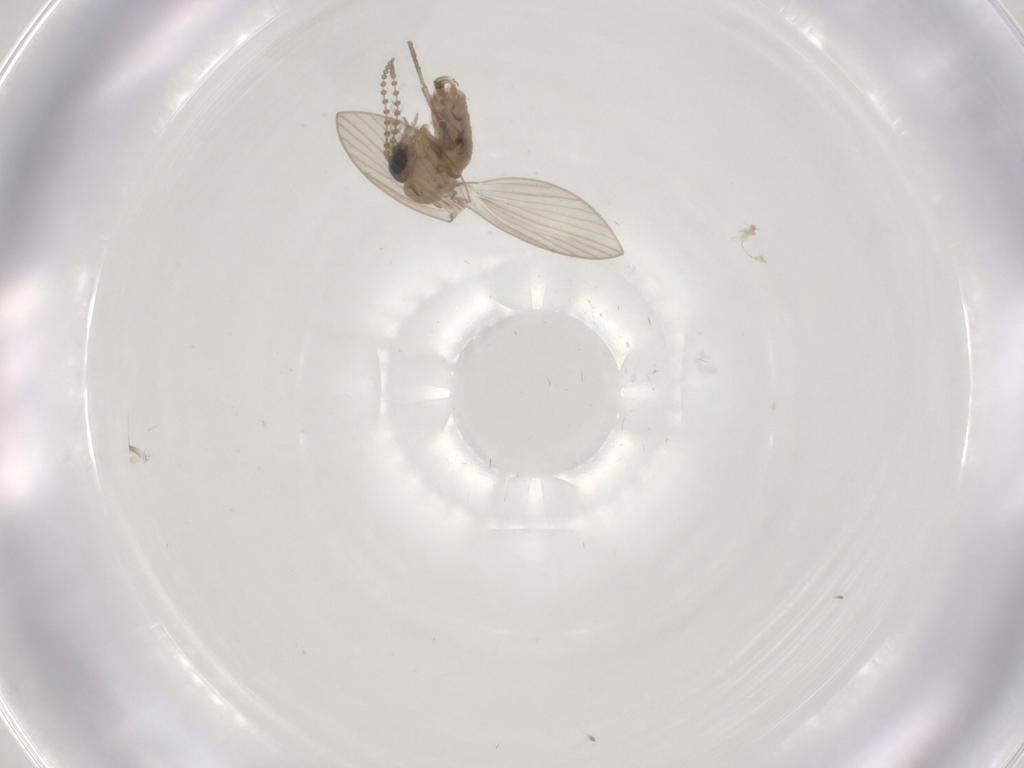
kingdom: Animalia
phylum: Arthropoda
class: Insecta
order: Diptera
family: Psychodidae
